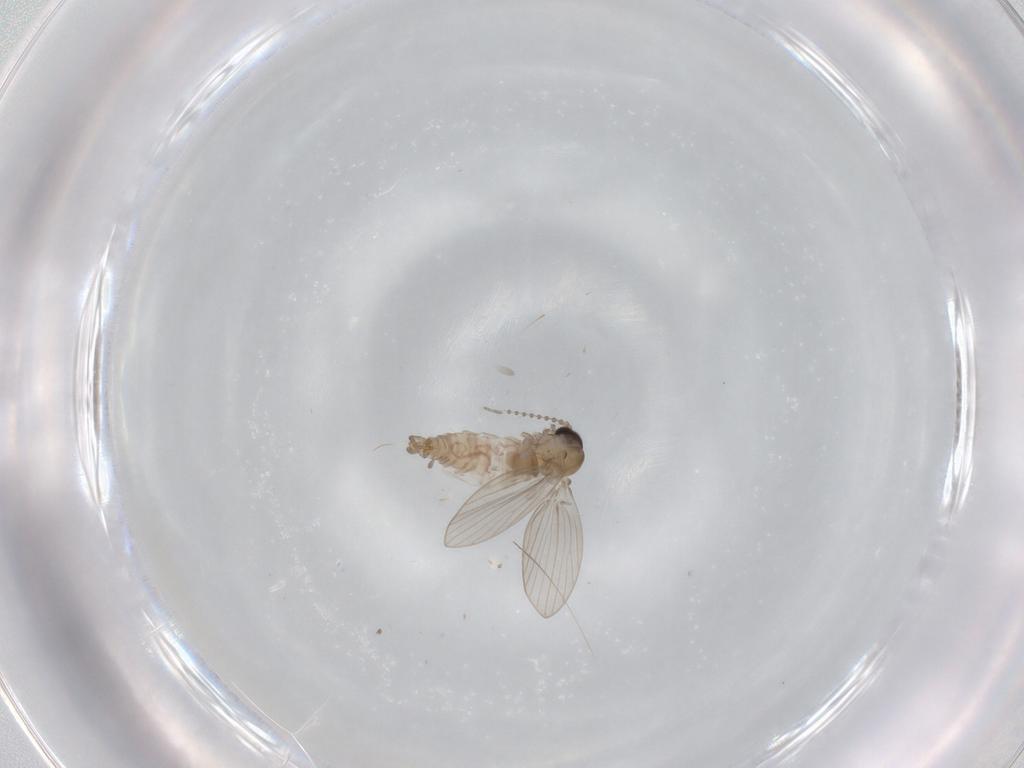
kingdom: Animalia
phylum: Arthropoda
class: Insecta
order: Diptera
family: Psychodidae
